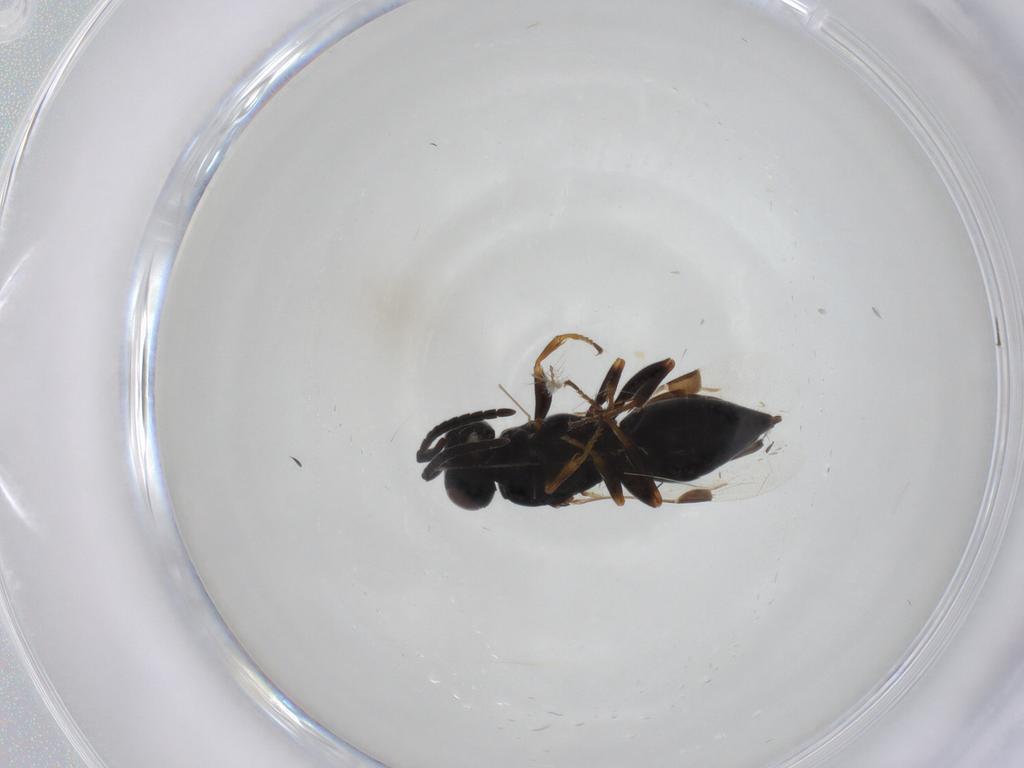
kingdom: Animalia
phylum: Arthropoda
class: Insecta
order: Hymenoptera
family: Megaspilidae
